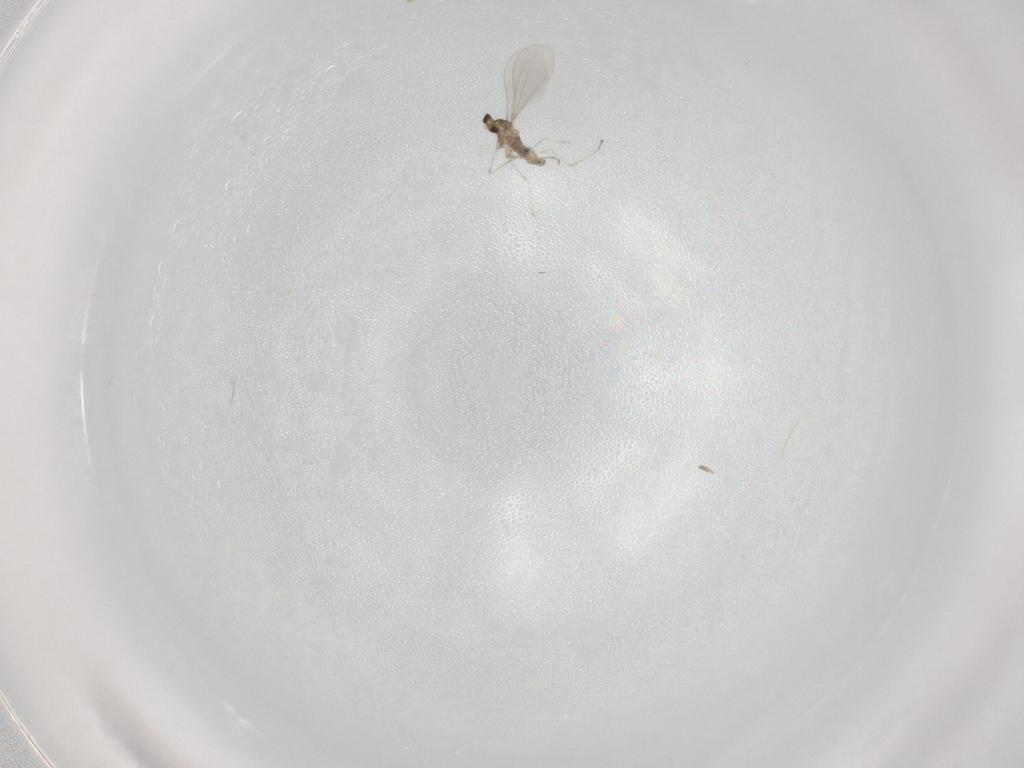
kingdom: Animalia
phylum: Arthropoda
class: Insecta
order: Diptera
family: Cecidomyiidae
